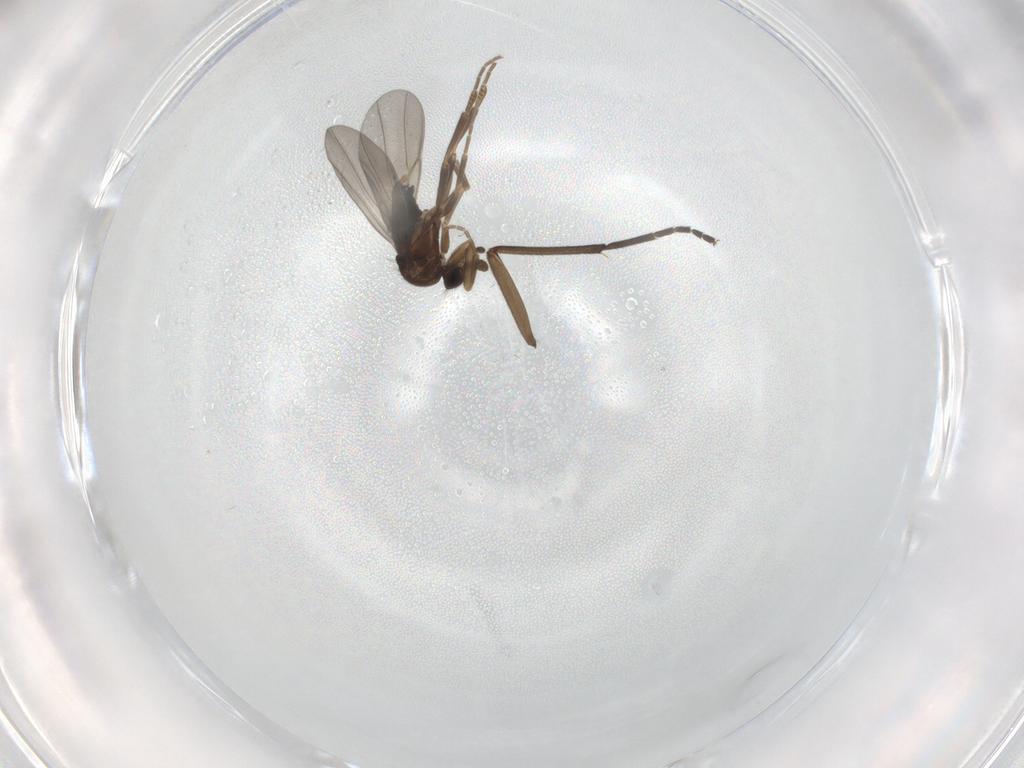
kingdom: Animalia
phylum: Arthropoda
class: Insecta
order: Diptera
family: Sciaridae
